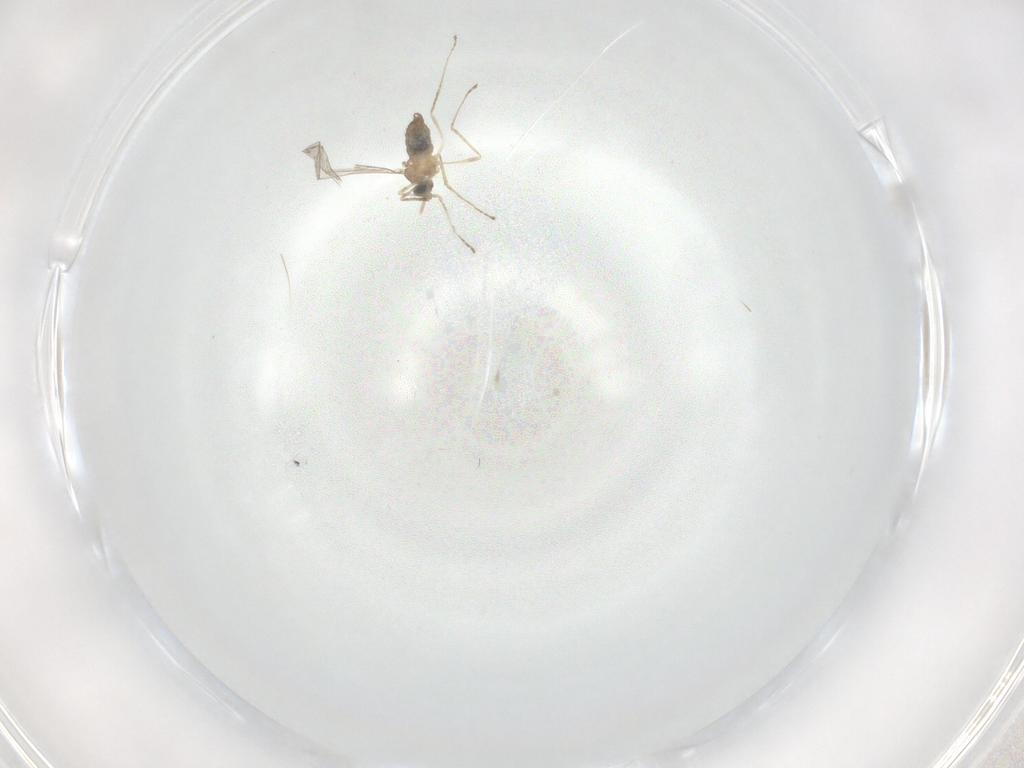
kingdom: Animalia
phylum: Arthropoda
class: Insecta
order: Diptera
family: Cecidomyiidae
